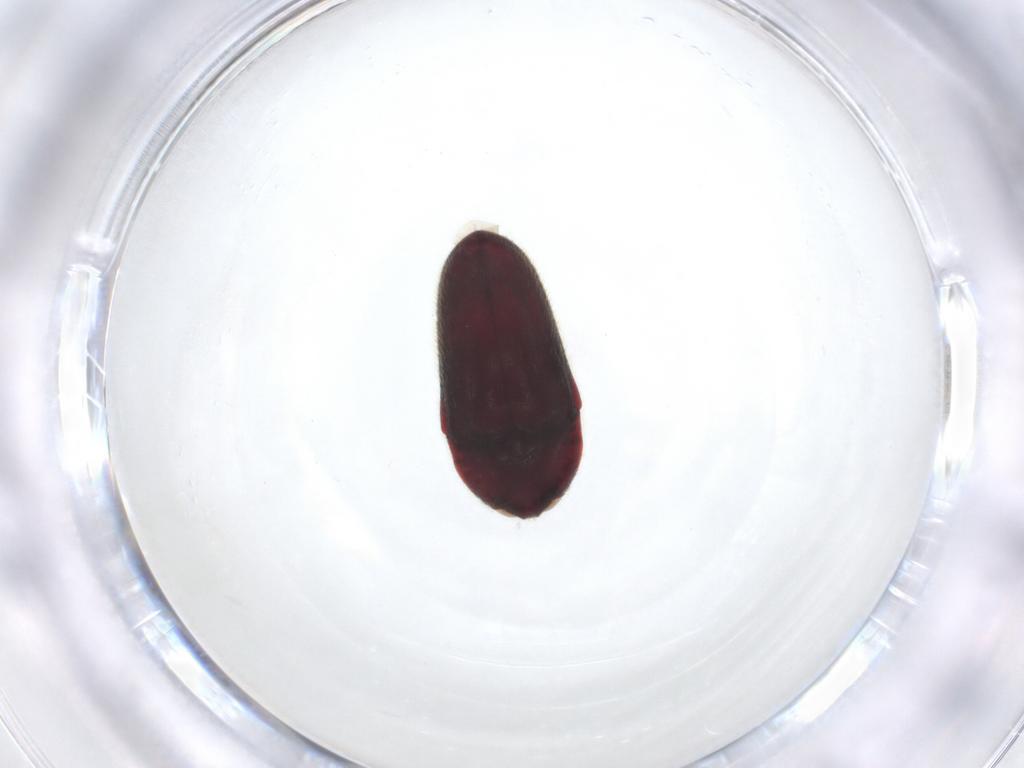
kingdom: Animalia
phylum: Arthropoda
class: Insecta
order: Coleoptera
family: Throscidae
